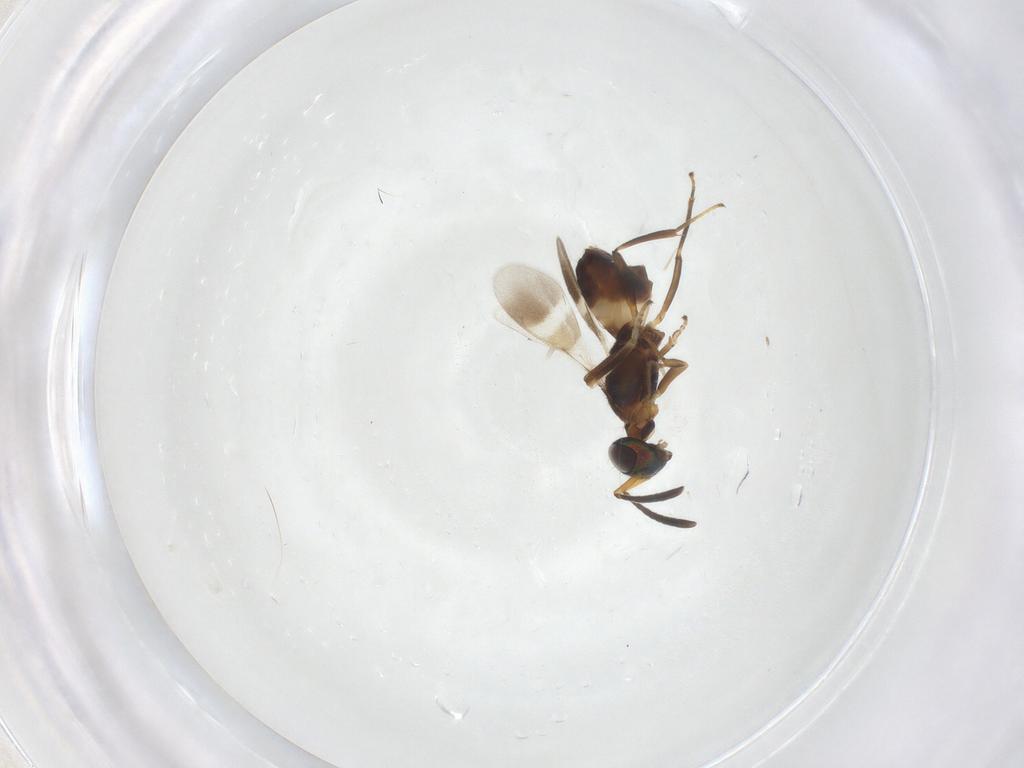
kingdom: Animalia
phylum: Arthropoda
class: Insecta
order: Hymenoptera
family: Eupelmidae
